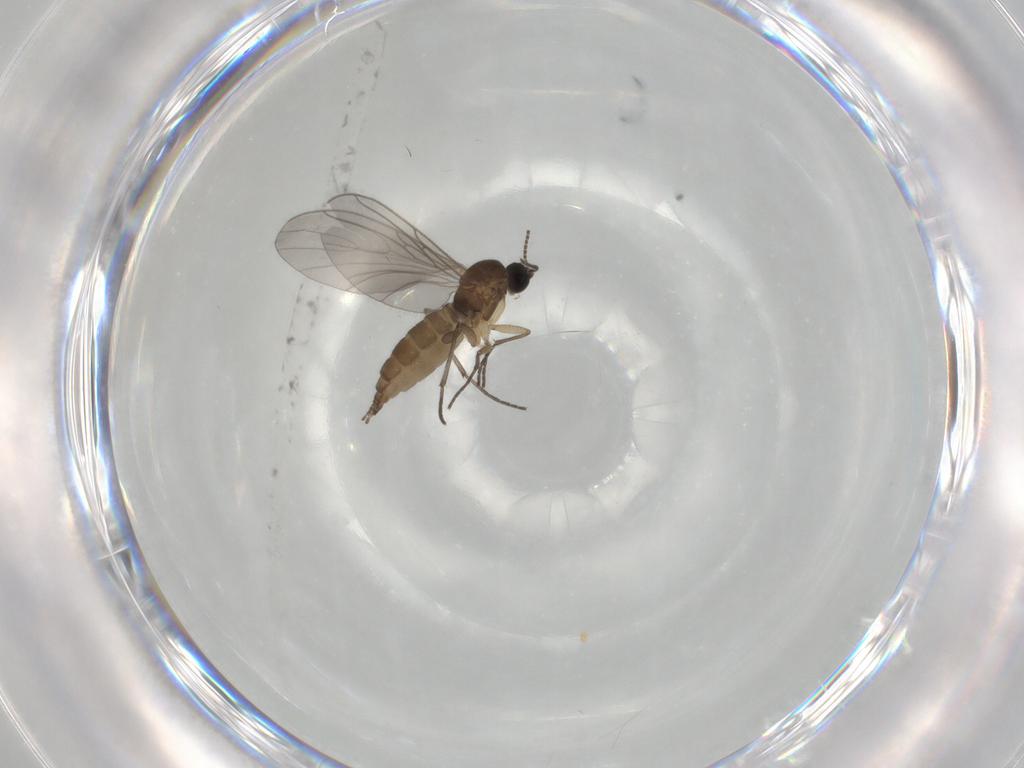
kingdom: Animalia
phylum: Arthropoda
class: Insecta
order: Diptera
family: Sciaridae
